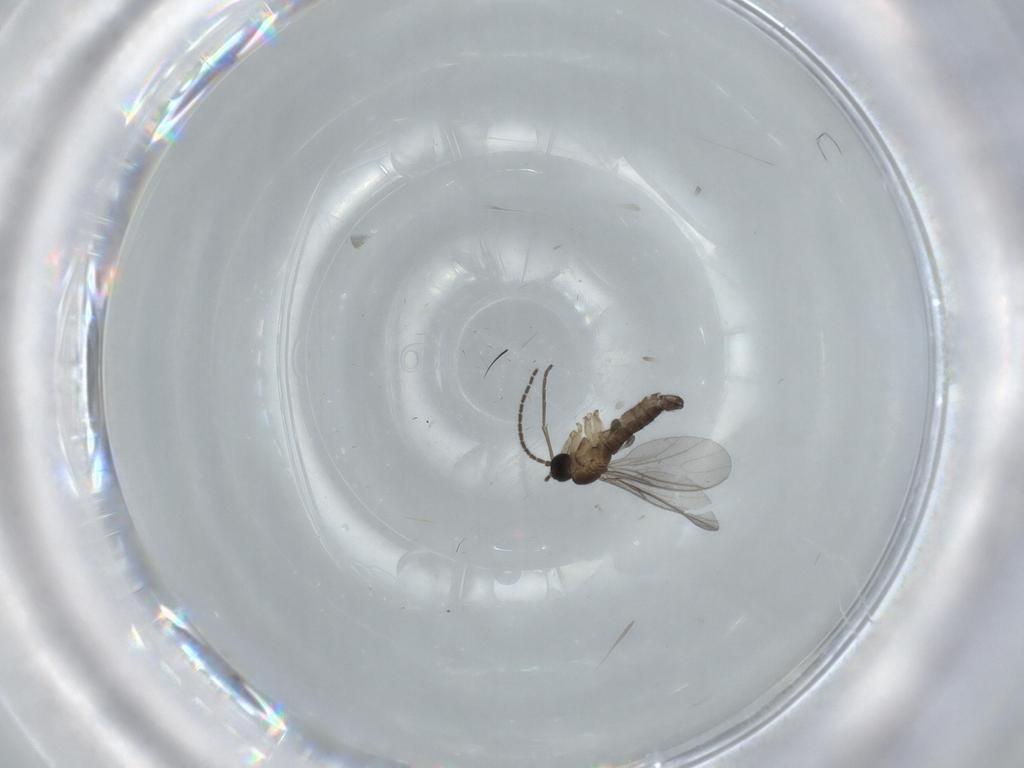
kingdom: Animalia
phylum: Arthropoda
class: Insecta
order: Diptera
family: Sciaridae
